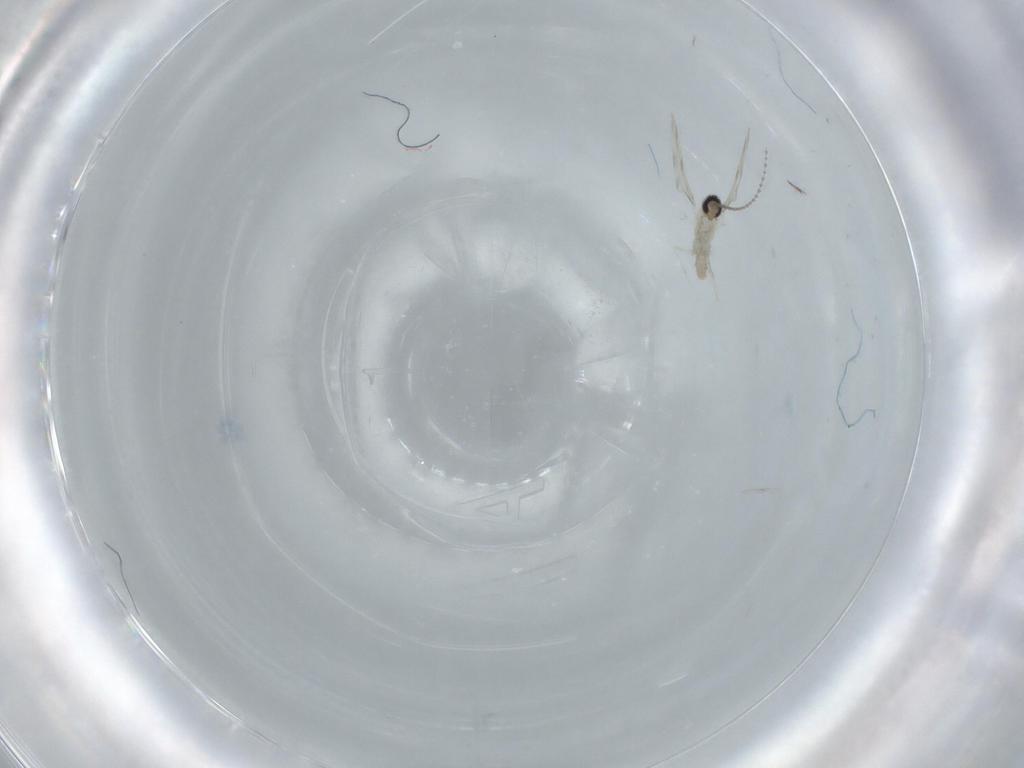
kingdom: Animalia
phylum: Arthropoda
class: Insecta
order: Diptera
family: Cecidomyiidae
